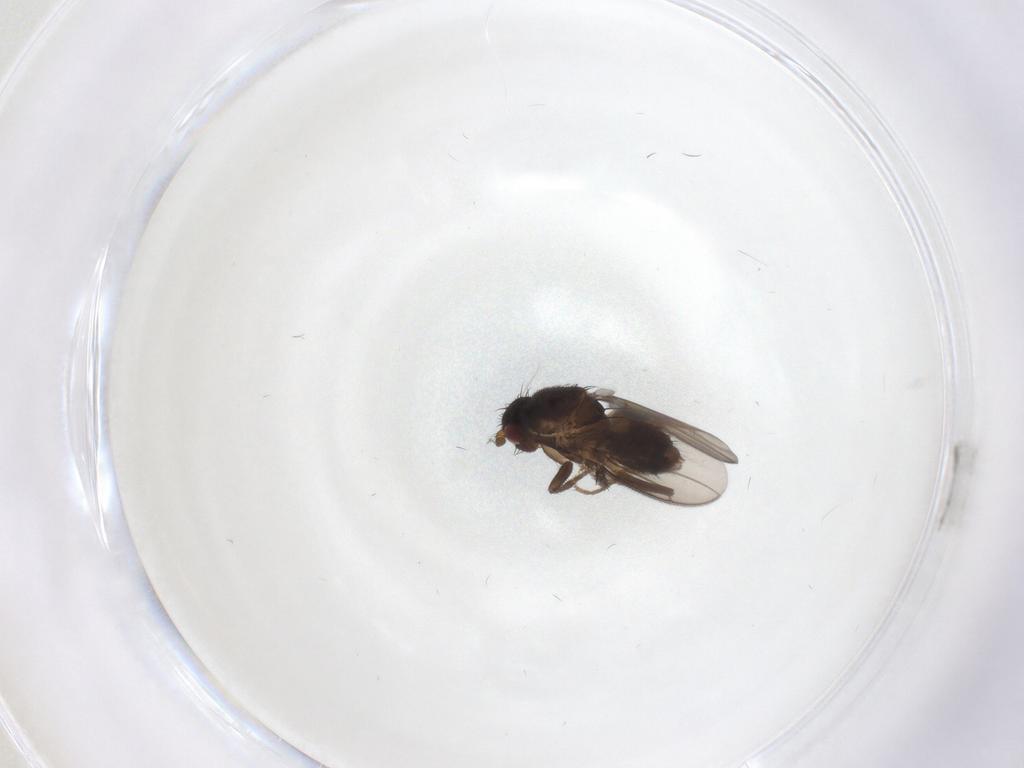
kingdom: Animalia
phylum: Arthropoda
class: Insecta
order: Diptera
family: Sphaeroceridae
